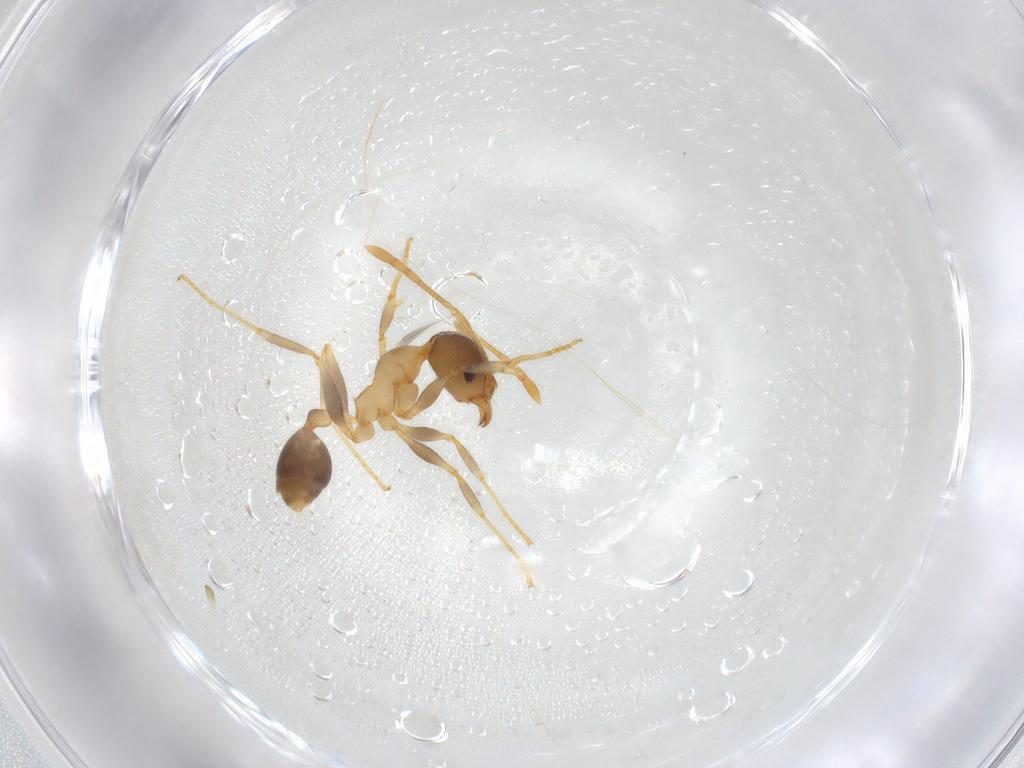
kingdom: Animalia
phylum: Arthropoda
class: Insecta
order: Hymenoptera
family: Formicidae
